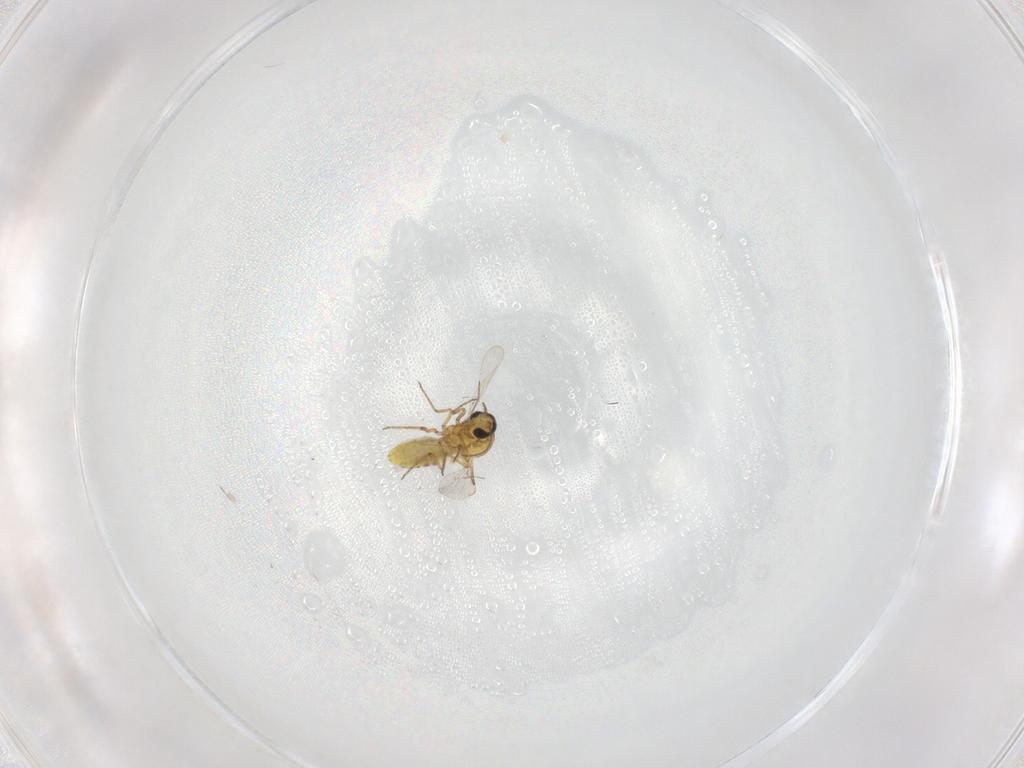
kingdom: Animalia
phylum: Arthropoda
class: Insecta
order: Diptera
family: Ceratopogonidae
